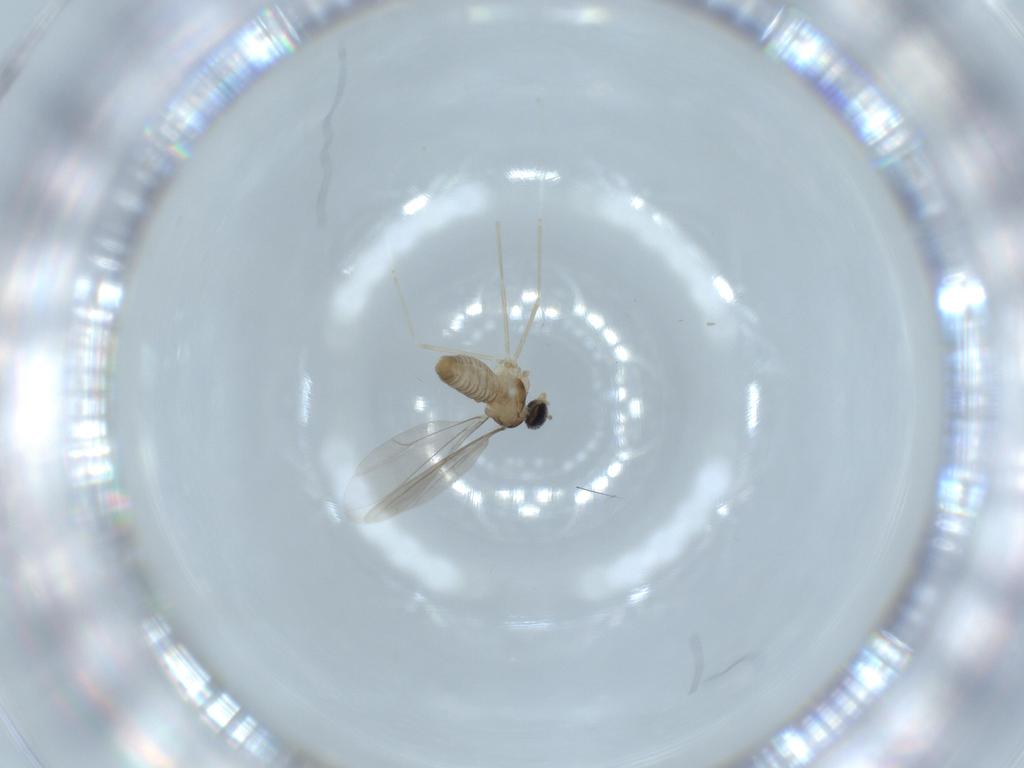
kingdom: Animalia
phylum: Arthropoda
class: Insecta
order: Diptera
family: Cecidomyiidae
